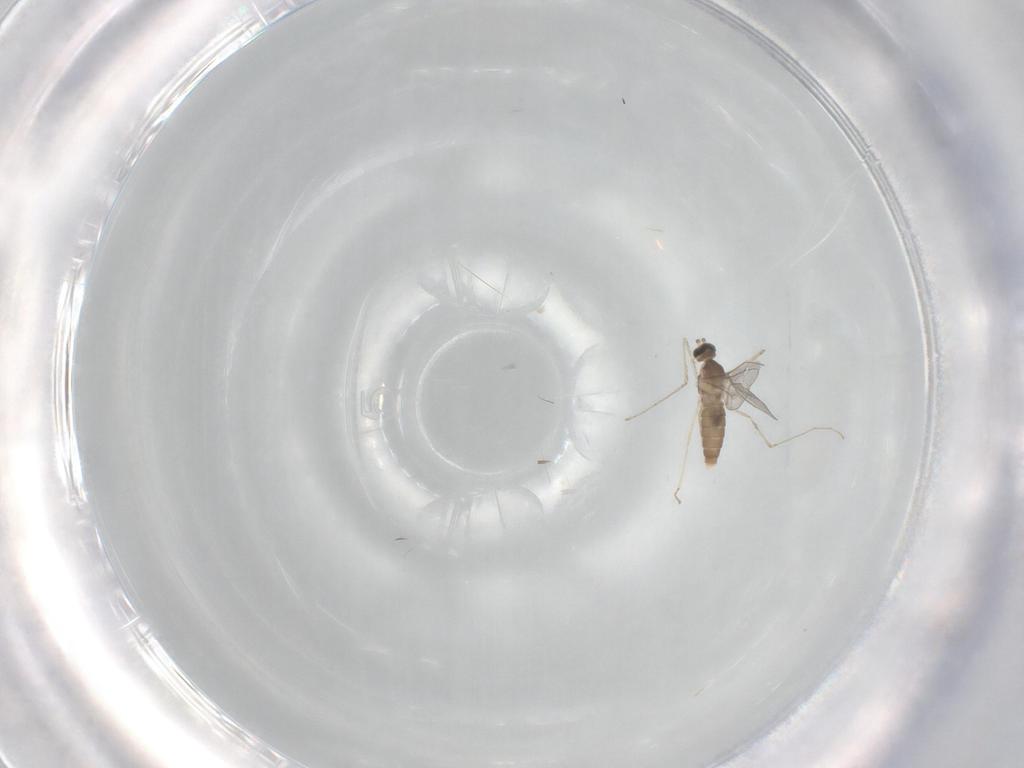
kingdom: Animalia
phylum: Arthropoda
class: Insecta
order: Diptera
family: Cecidomyiidae
